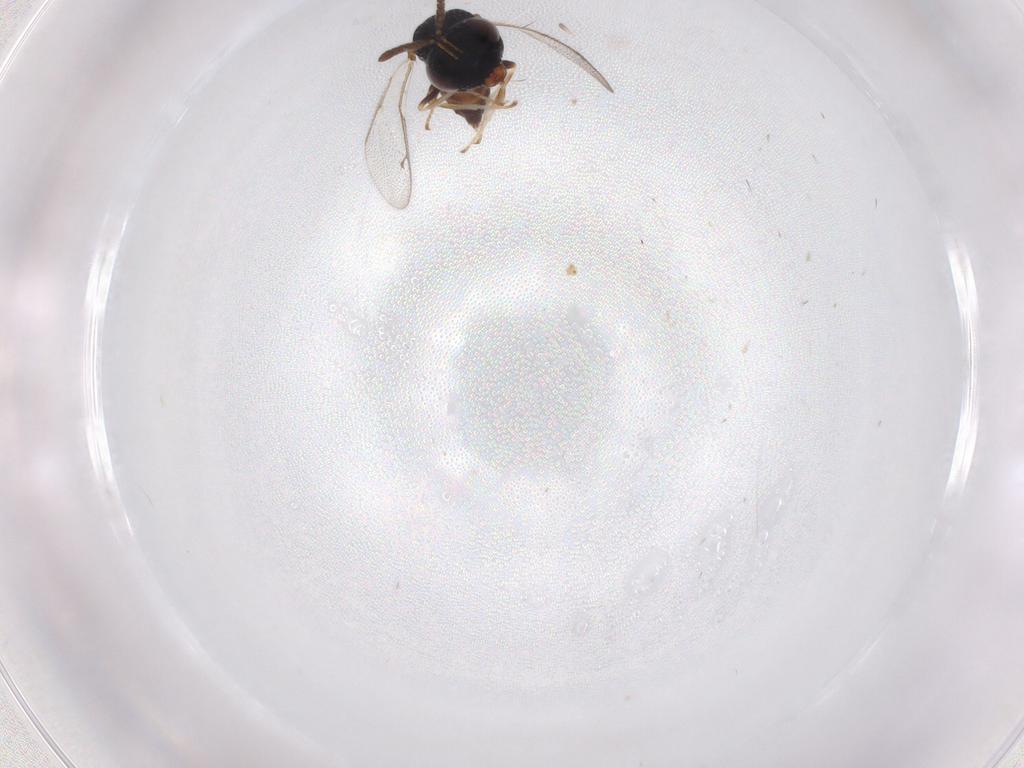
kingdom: Animalia
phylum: Arthropoda
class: Insecta
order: Hymenoptera
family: Pteromalidae
